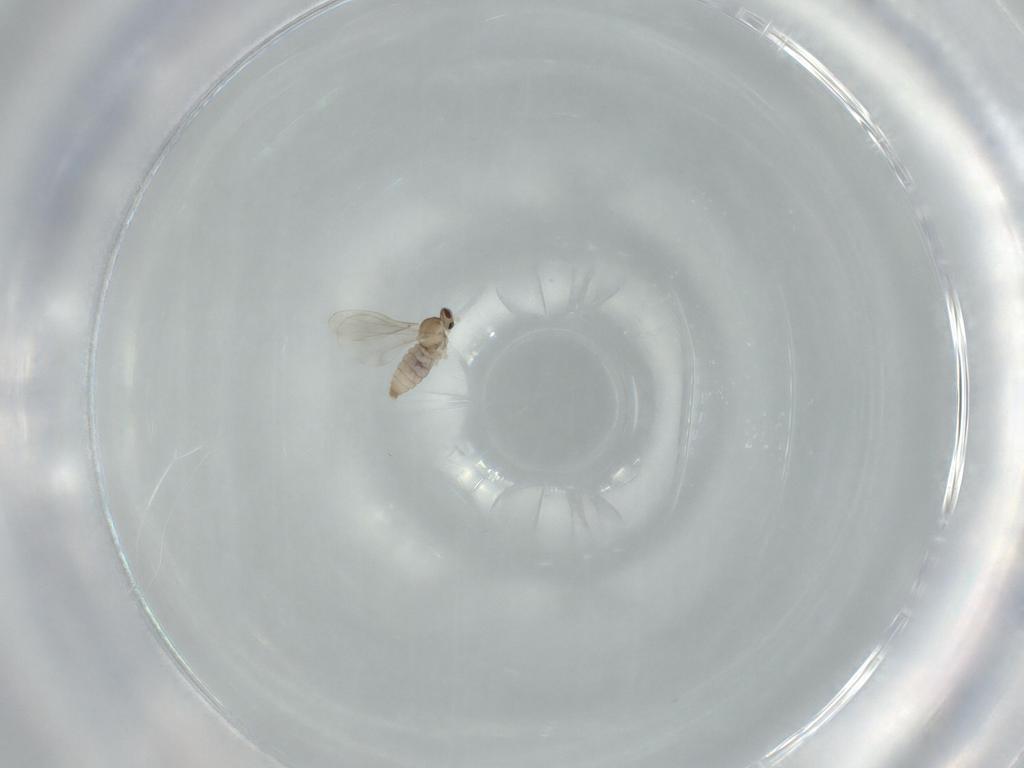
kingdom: Animalia
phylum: Arthropoda
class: Insecta
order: Diptera
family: Cecidomyiidae
